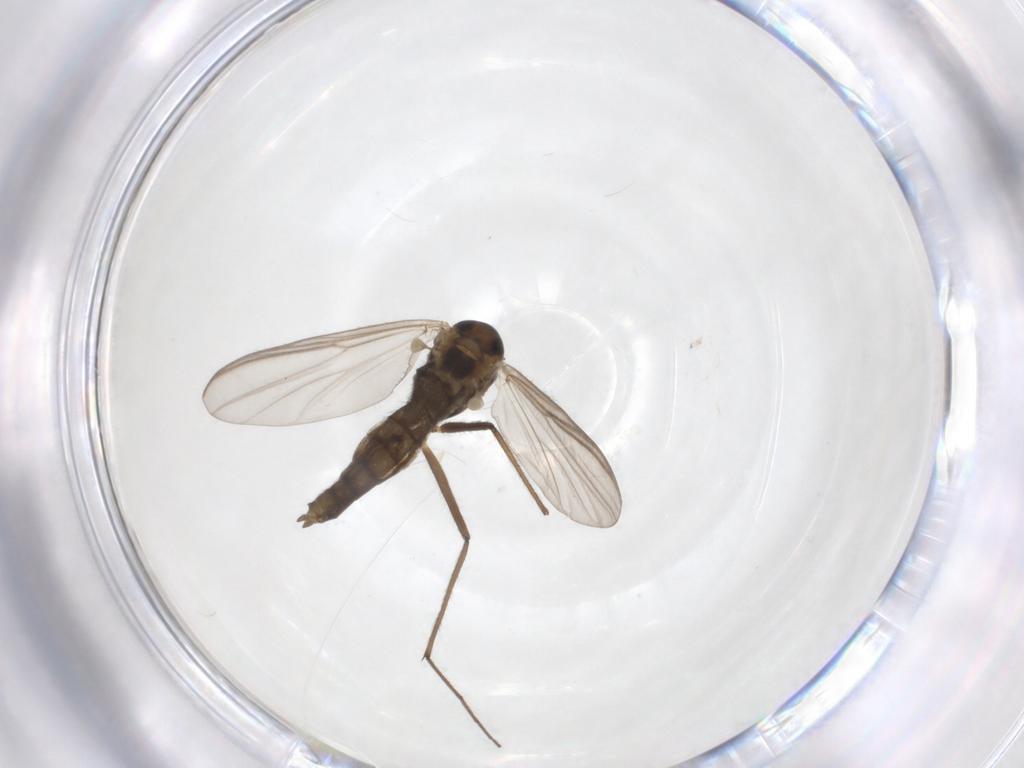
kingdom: Animalia
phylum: Arthropoda
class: Insecta
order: Diptera
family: Chironomidae
